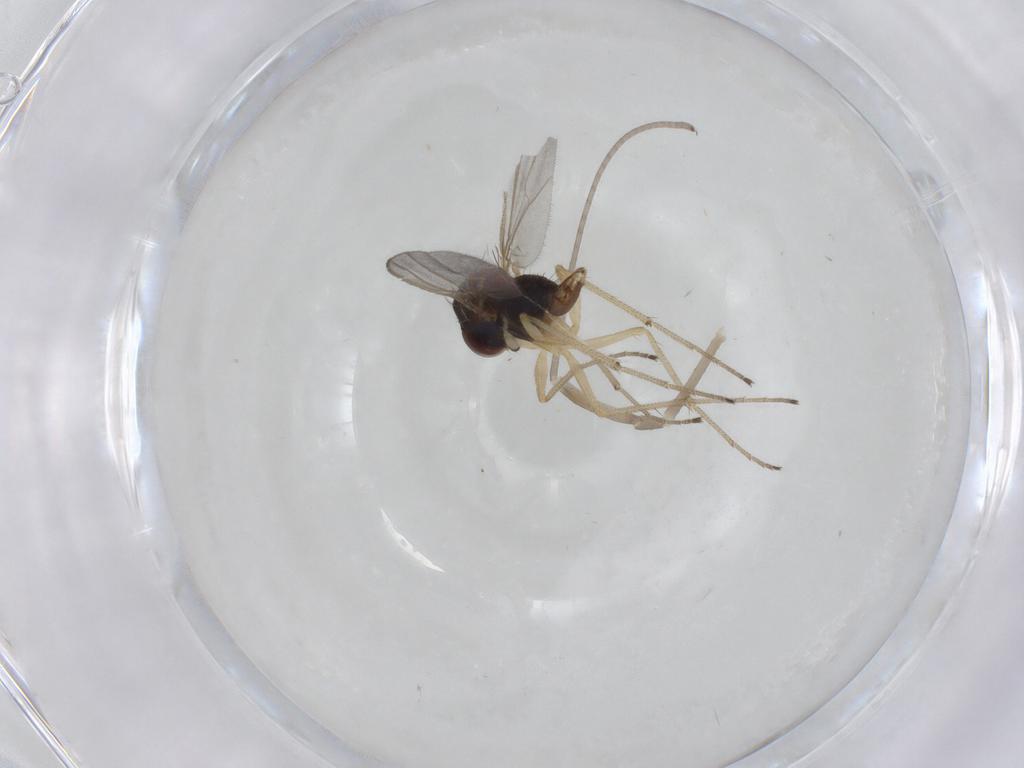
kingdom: Animalia
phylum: Arthropoda
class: Insecta
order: Diptera
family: Dolichopodidae
